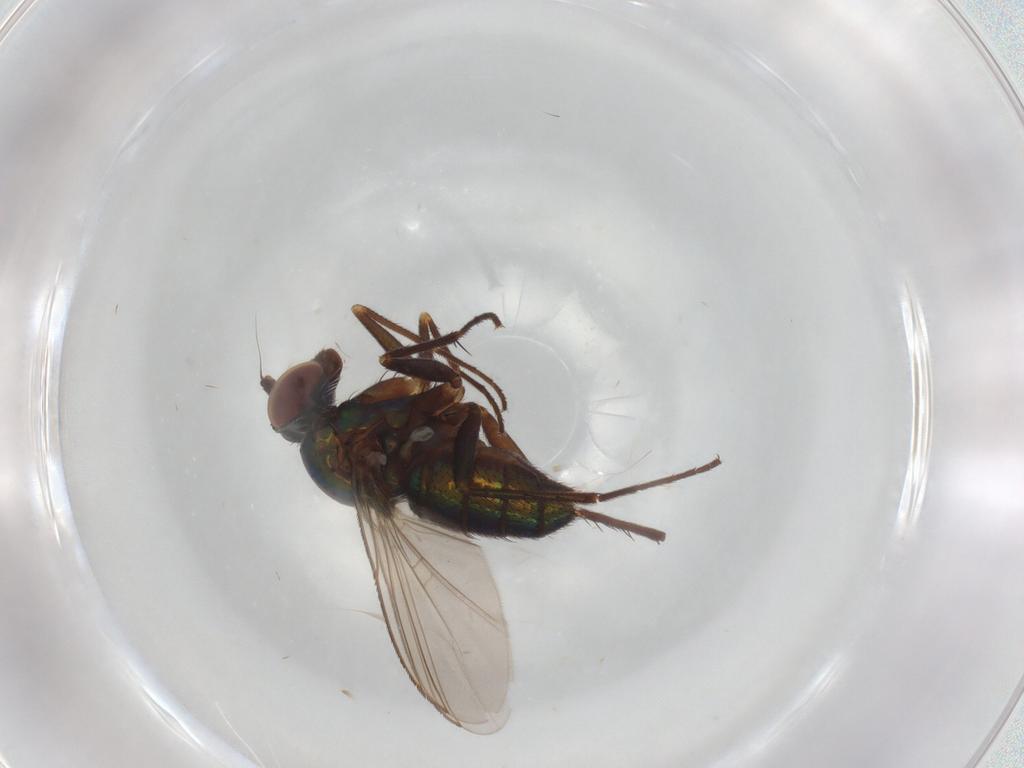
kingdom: Animalia
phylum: Arthropoda
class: Insecta
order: Diptera
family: Dolichopodidae
